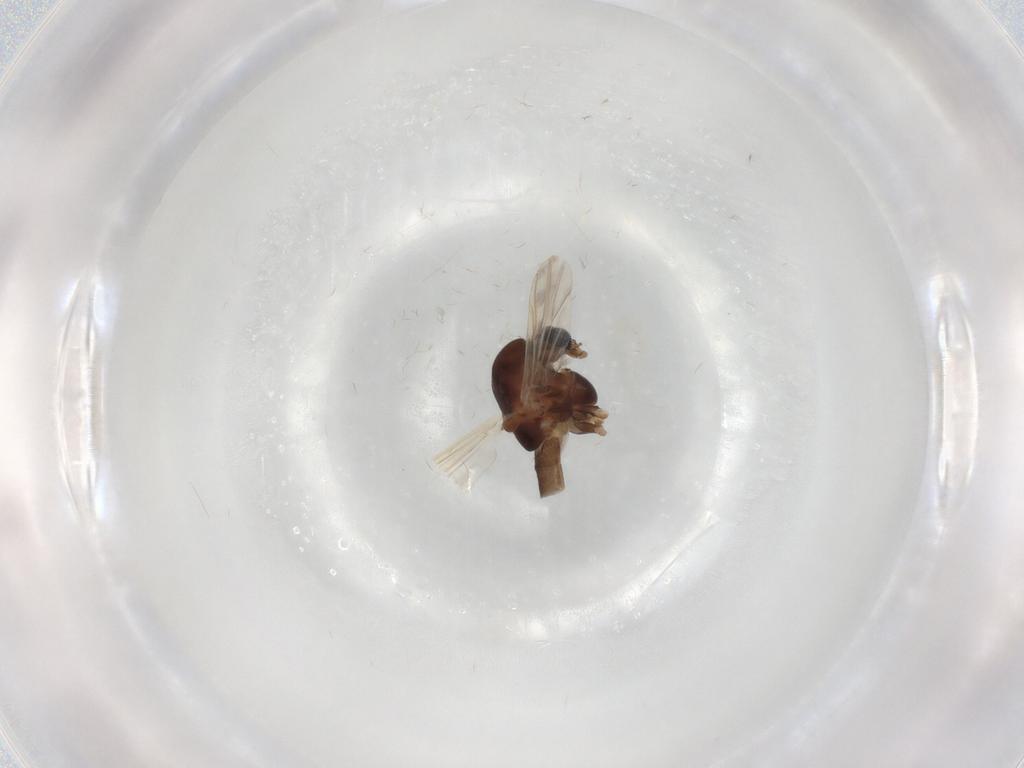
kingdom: Animalia
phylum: Arthropoda
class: Insecta
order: Diptera
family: Chironomidae
